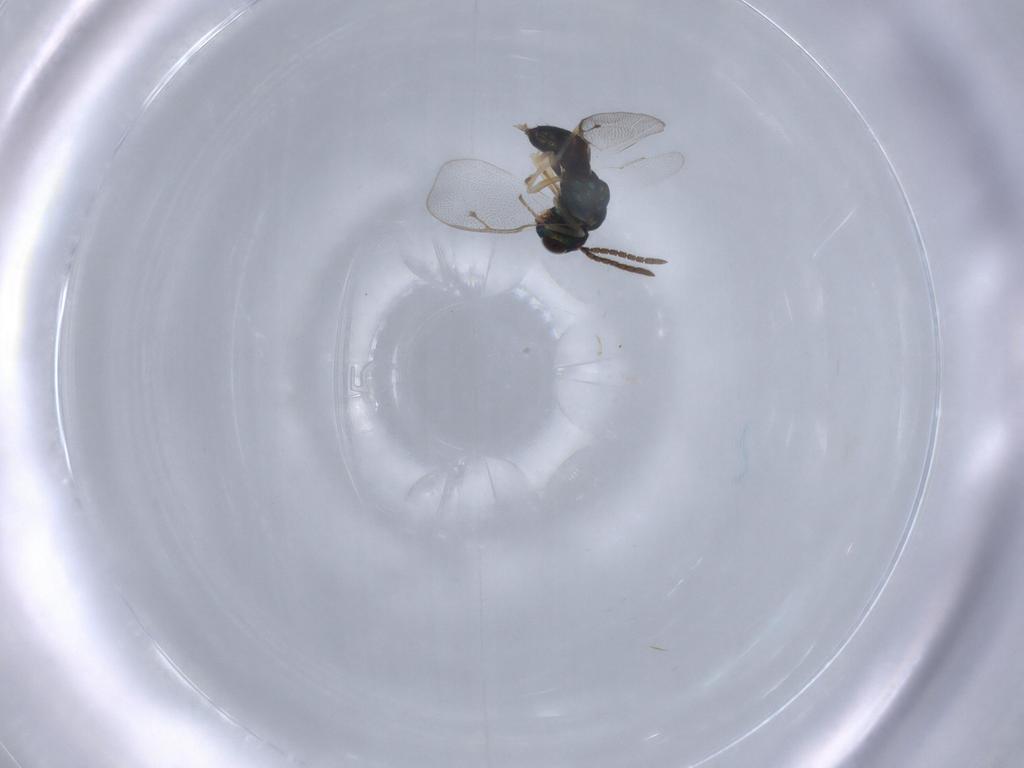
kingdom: Animalia
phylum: Arthropoda
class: Insecta
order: Hymenoptera
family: Pteromalidae
